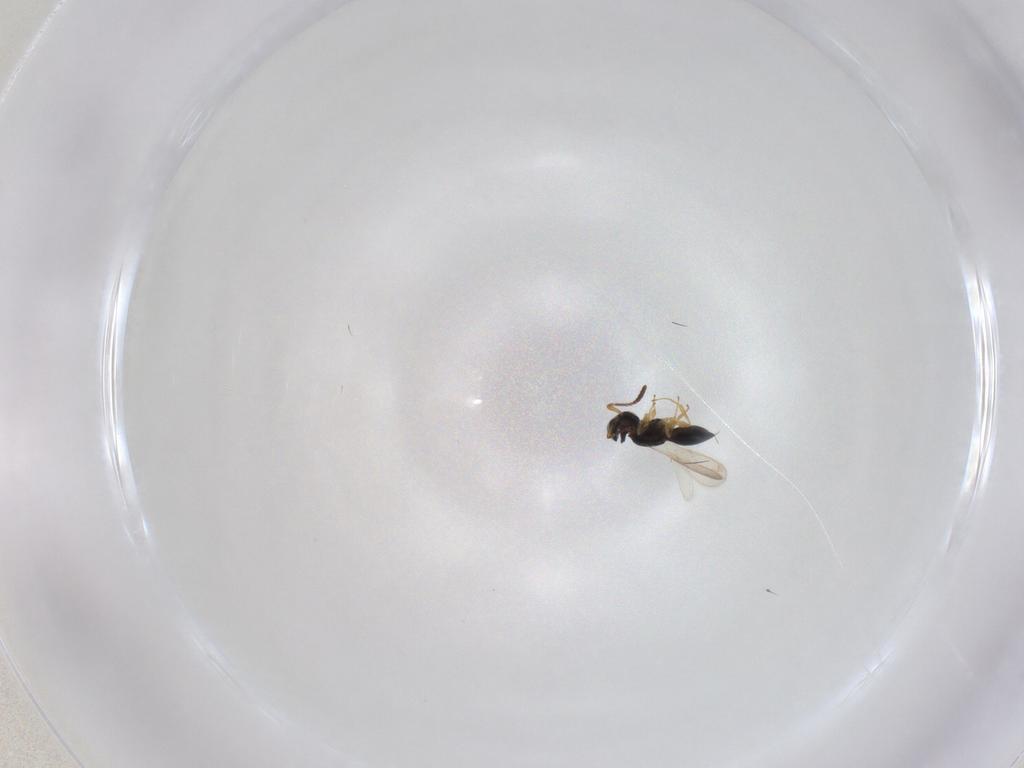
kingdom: Animalia
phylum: Arthropoda
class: Insecta
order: Hymenoptera
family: Scelionidae
